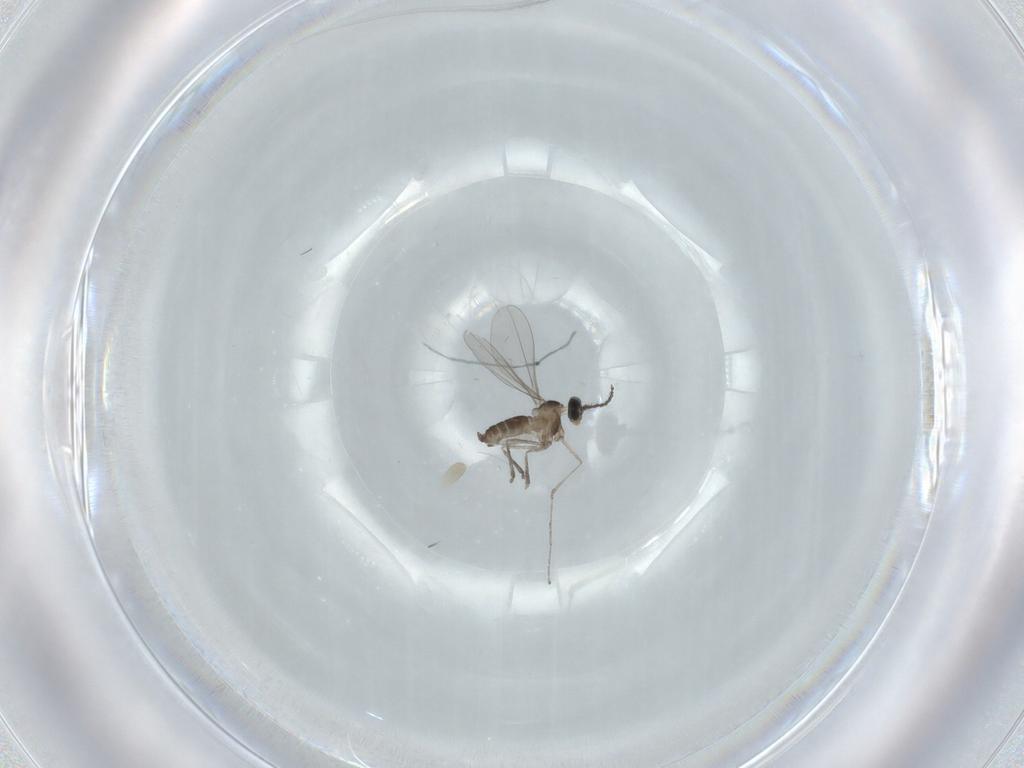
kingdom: Animalia
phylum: Arthropoda
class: Insecta
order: Diptera
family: Cecidomyiidae
